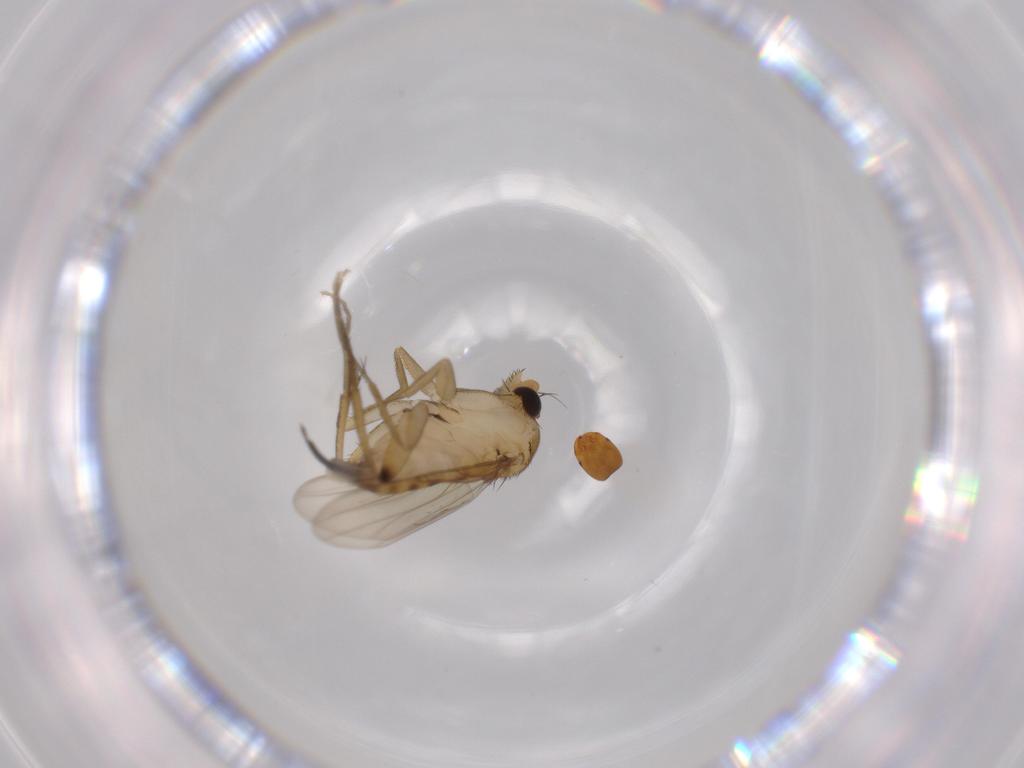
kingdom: Animalia
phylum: Arthropoda
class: Insecta
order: Diptera
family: Phoridae
